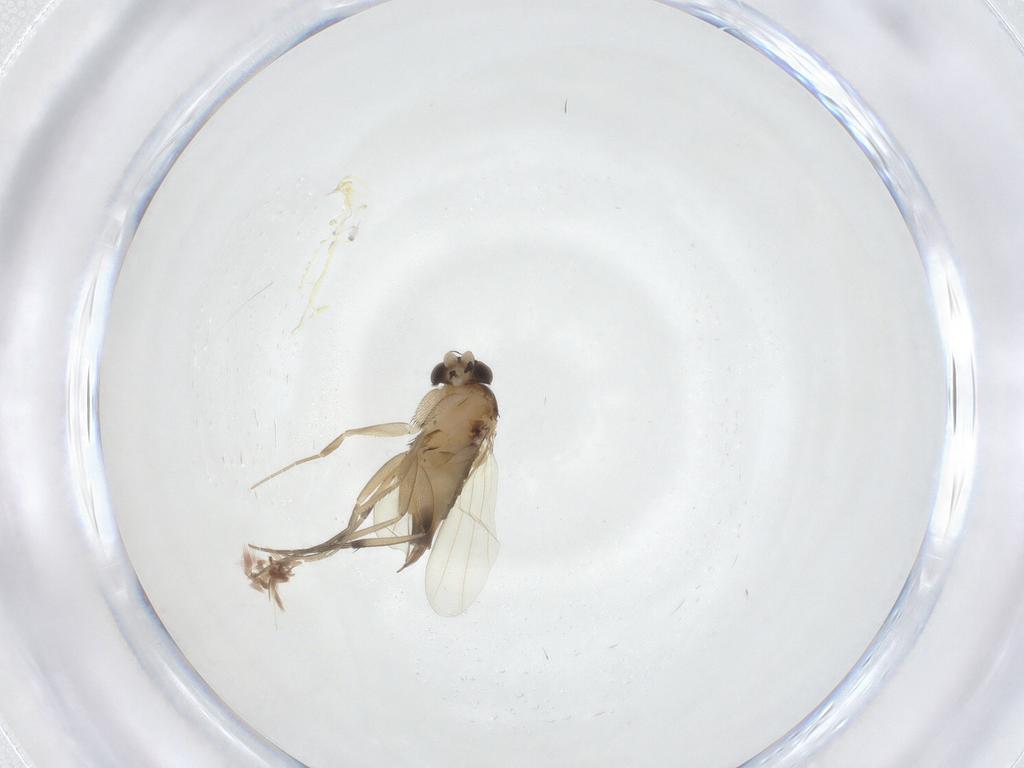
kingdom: Animalia
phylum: Arthropoda
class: Insecta
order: Diptera
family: Phoridae
